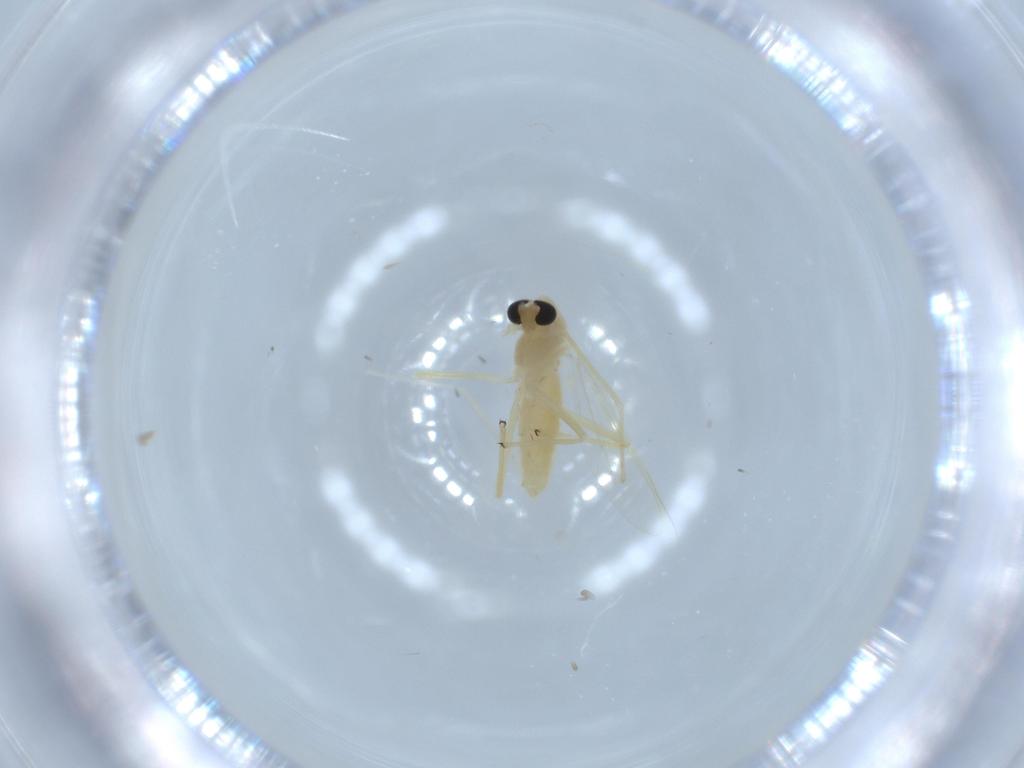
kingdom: Animalia
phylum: Arthropoda
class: Insecta
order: Diptera
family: Chironomidae
